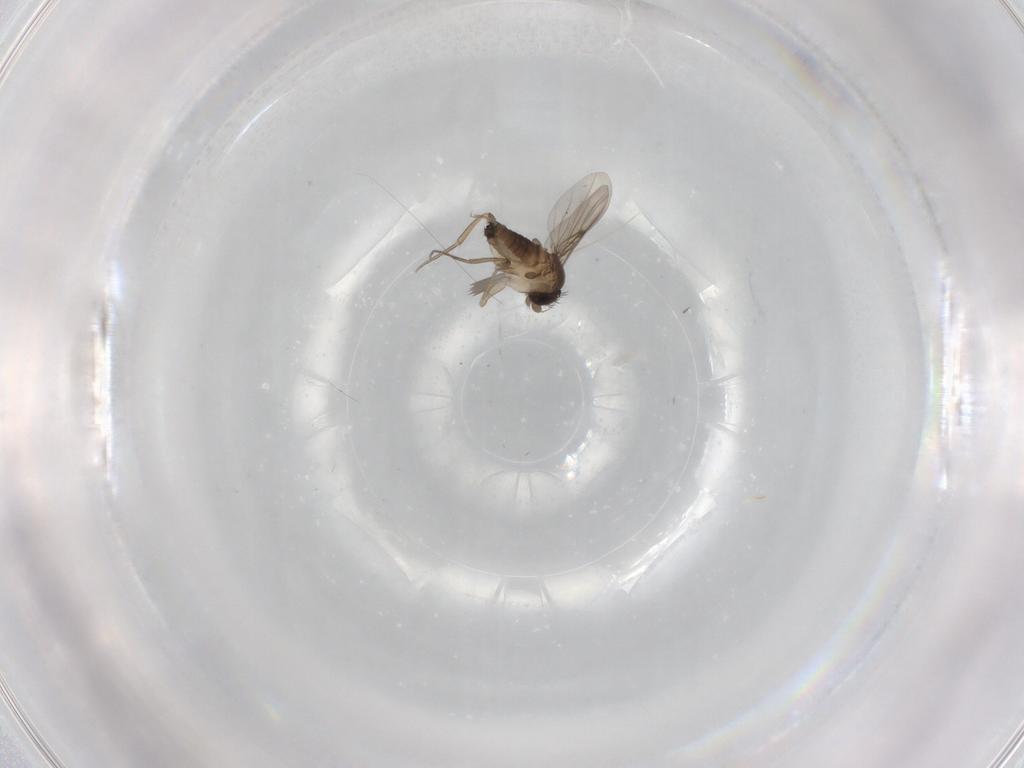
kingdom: Animalia
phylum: Arthropoda
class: Insecta
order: Diptera
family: Phoridae
